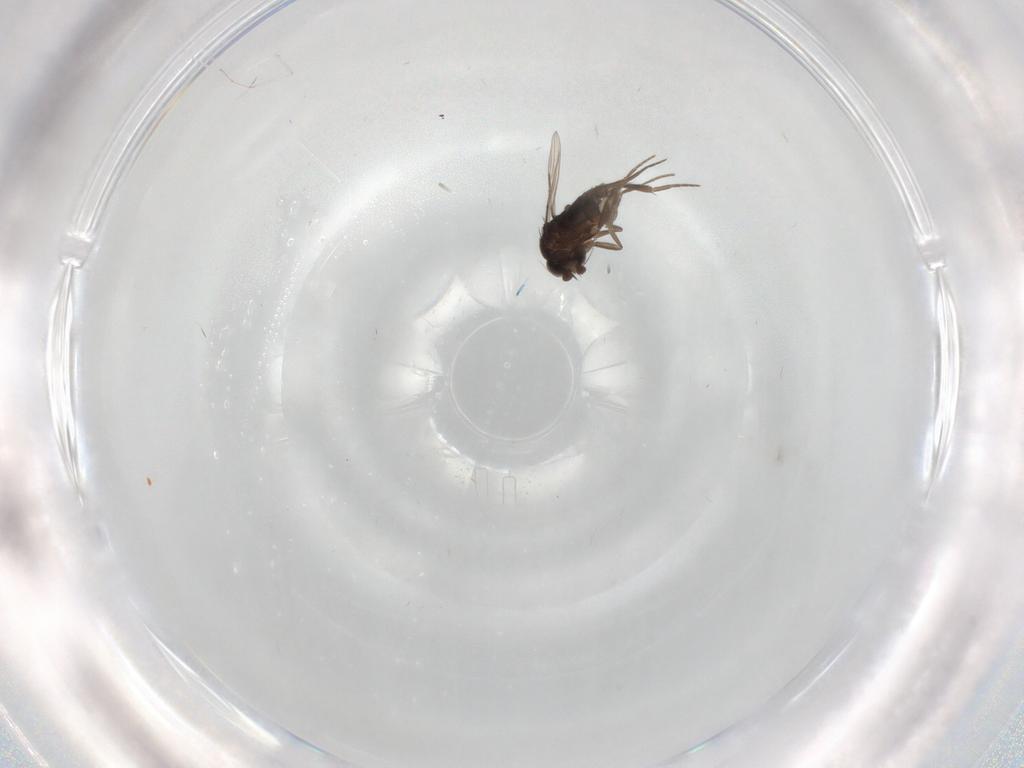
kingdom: Animalia
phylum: Arthropoda
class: Insecta
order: Diptera
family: Phoridae
